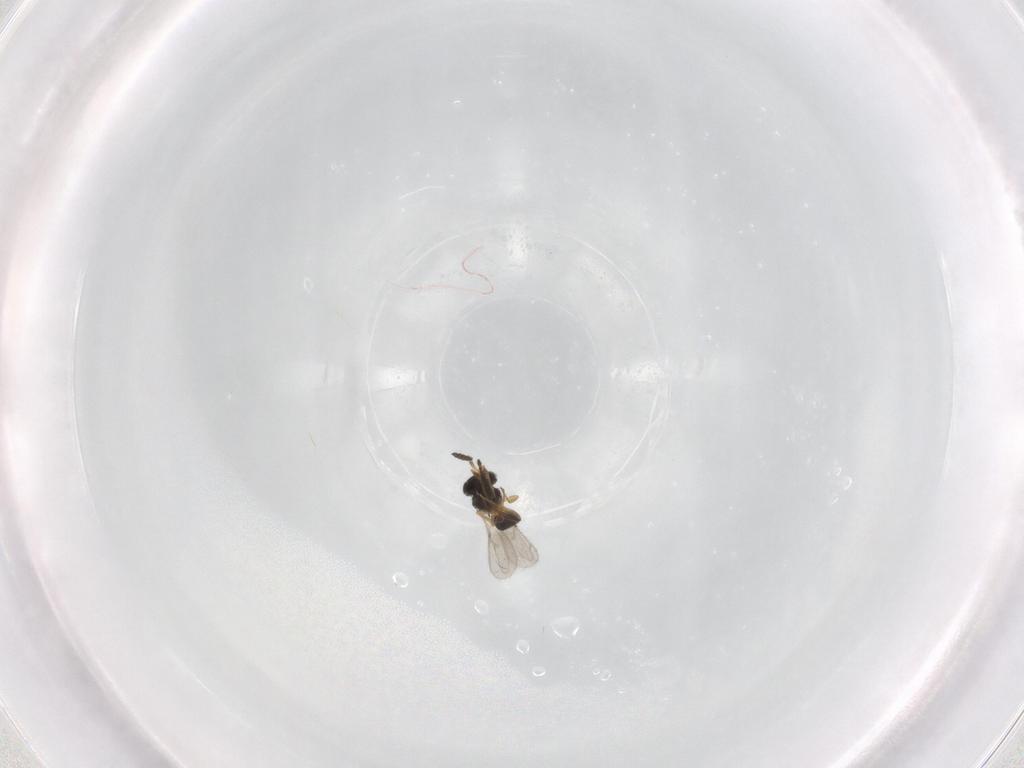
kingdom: Animalia
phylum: Arthropoda
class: Insecta
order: Hymenoptera
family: Scelionidae
